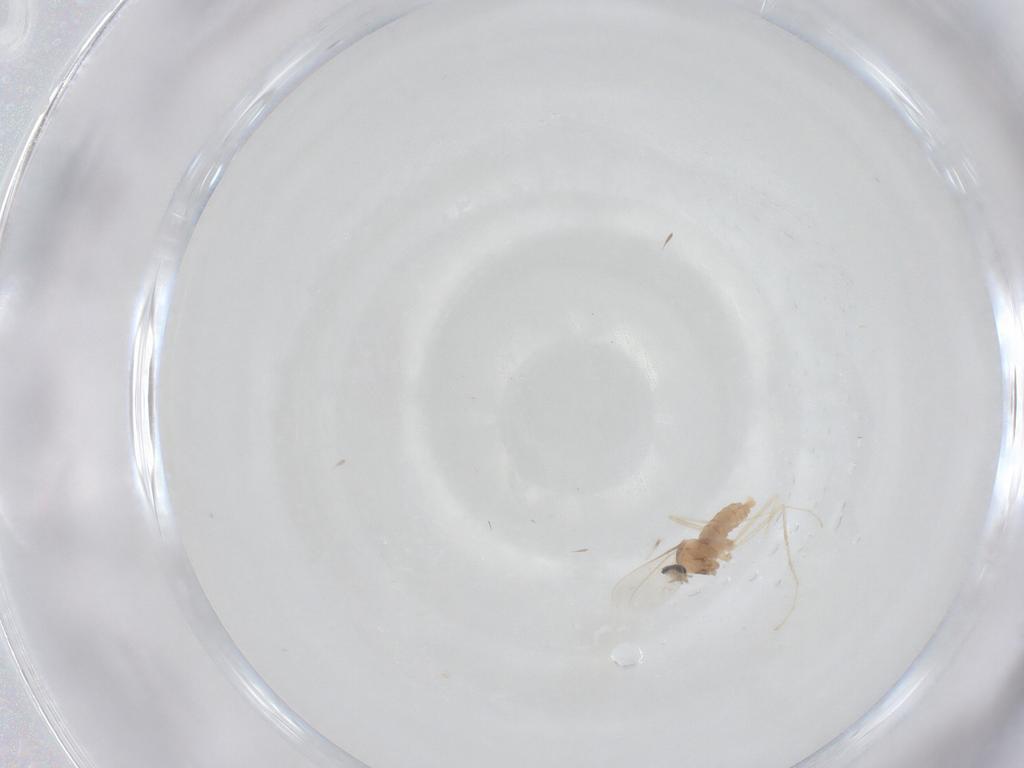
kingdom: Animalia
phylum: Arthropoda
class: Insecta
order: Diptera
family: Cecidomyiidae
